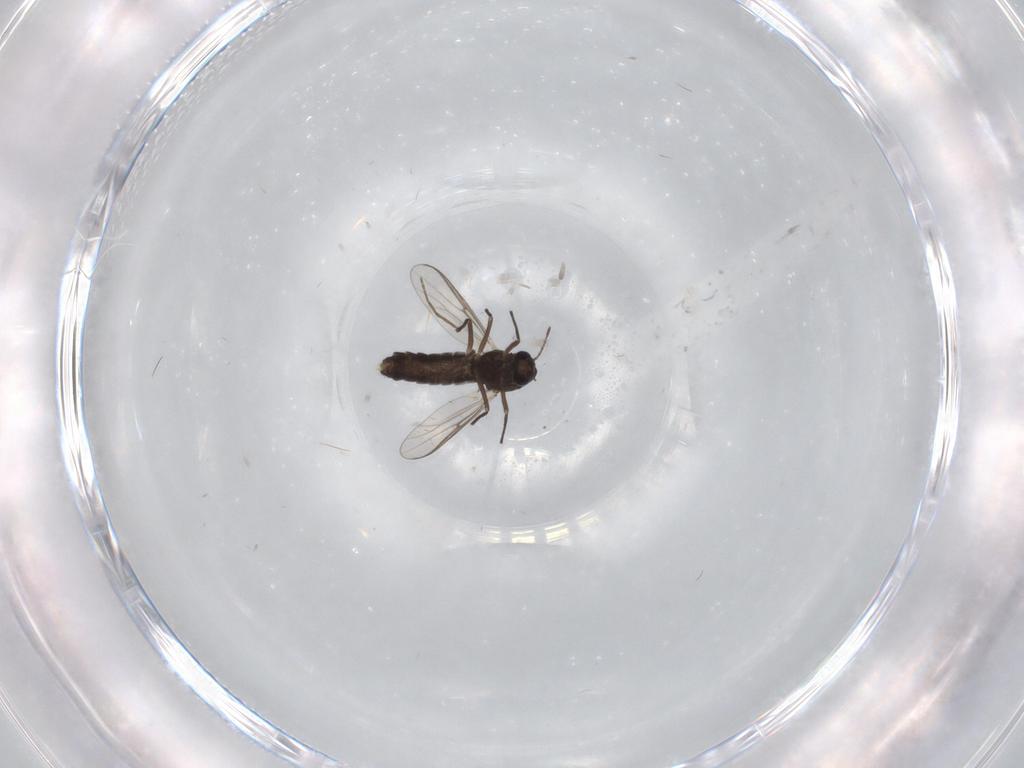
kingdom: Animalia
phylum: Arthropoda
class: Insecta
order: Diptera
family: Chironomidae
